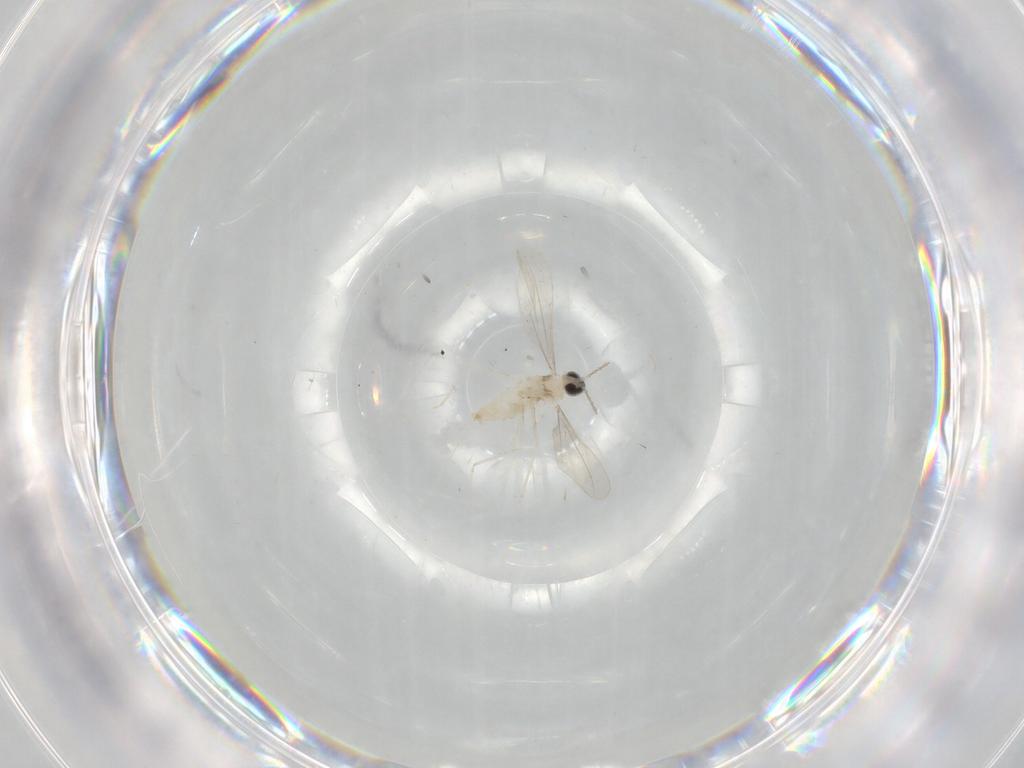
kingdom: Animalia
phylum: Arthropoda
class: Insecta
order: Diptera
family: Cecidomyiidae
